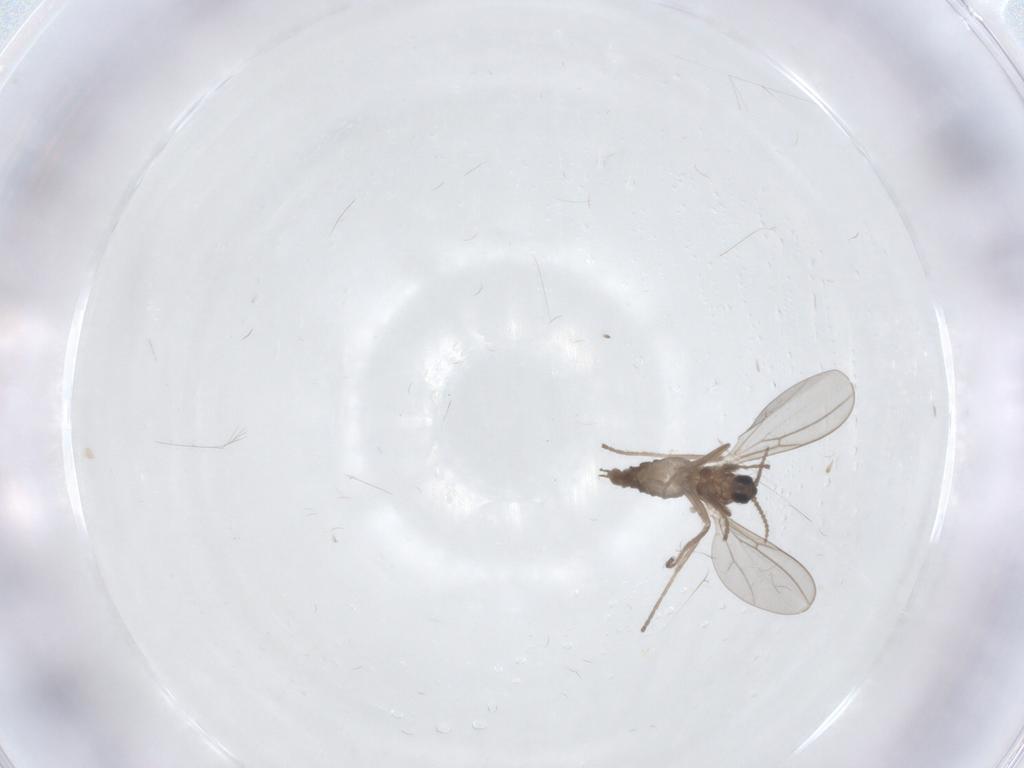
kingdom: Animalia
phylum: Arthropoda
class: Insecta
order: Diptera
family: Cecidomyiidae
